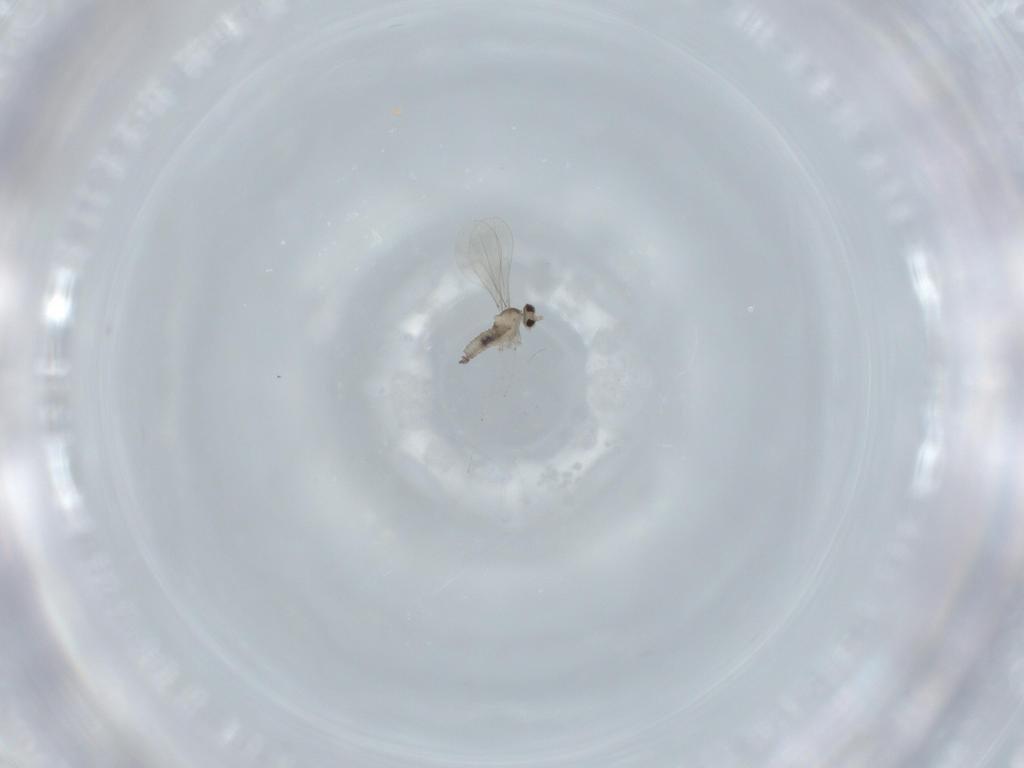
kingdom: Animalia
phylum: Arthropoda
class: Insecta
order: Diptera
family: Cecidomyiidae
